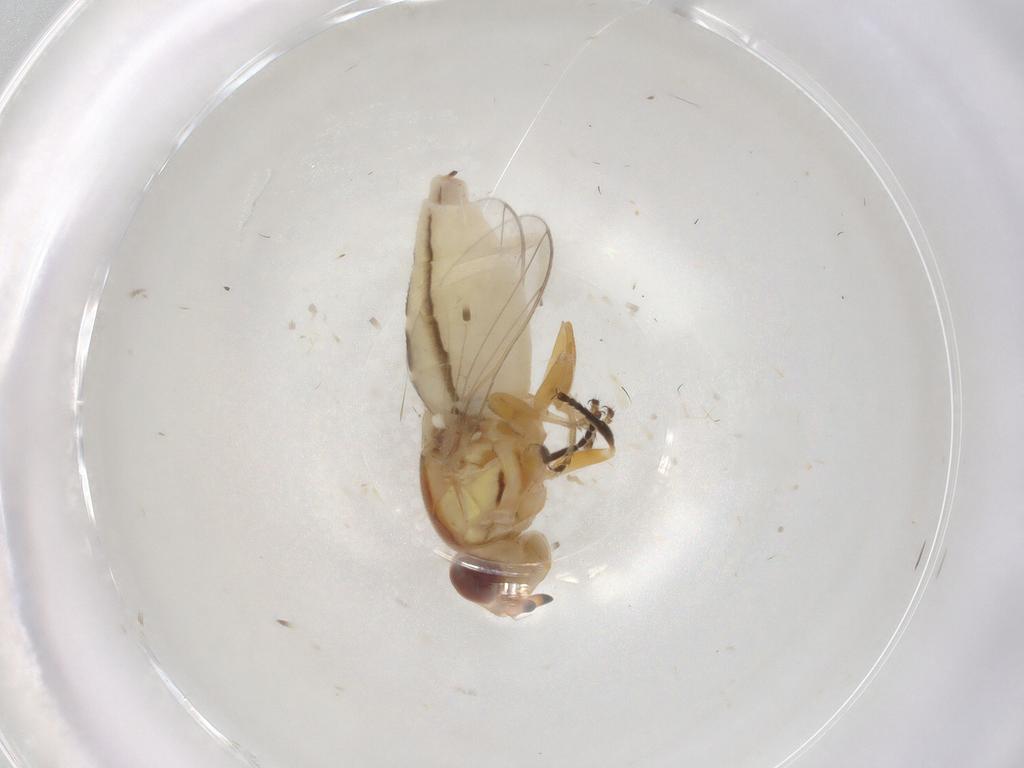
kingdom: Animalia
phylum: Arthropoda
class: Insecta
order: Diptera
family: Chloropidae
